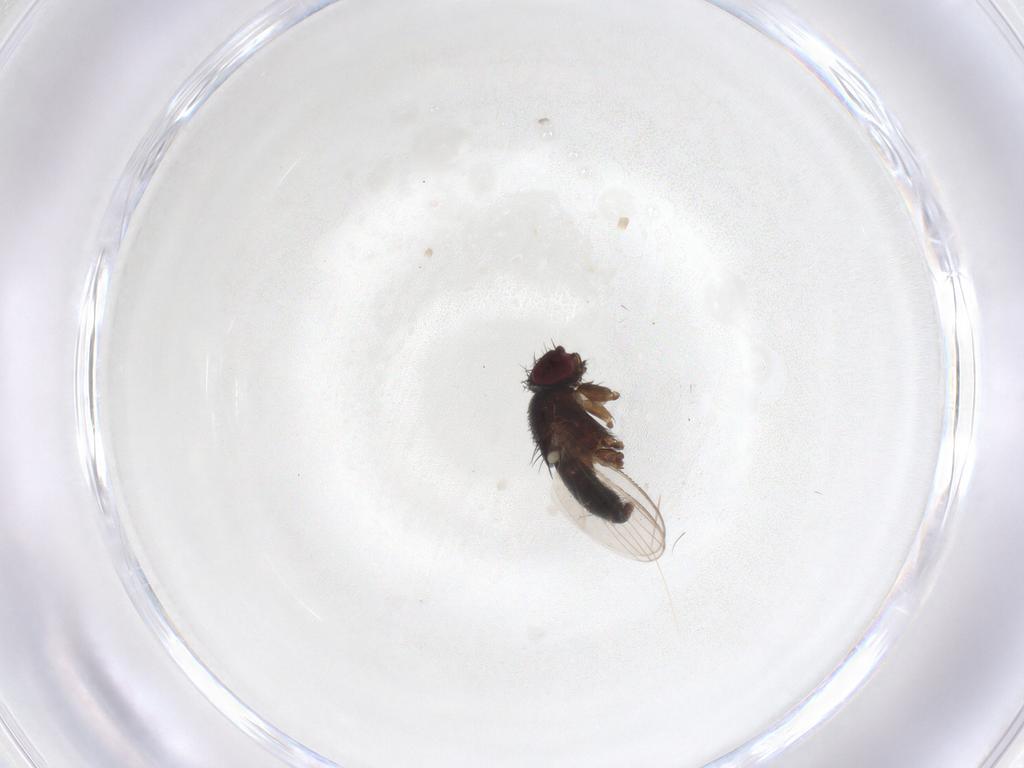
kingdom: Animalia
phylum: Arthropoda
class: Insecta
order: Diptera
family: Milichiidae
